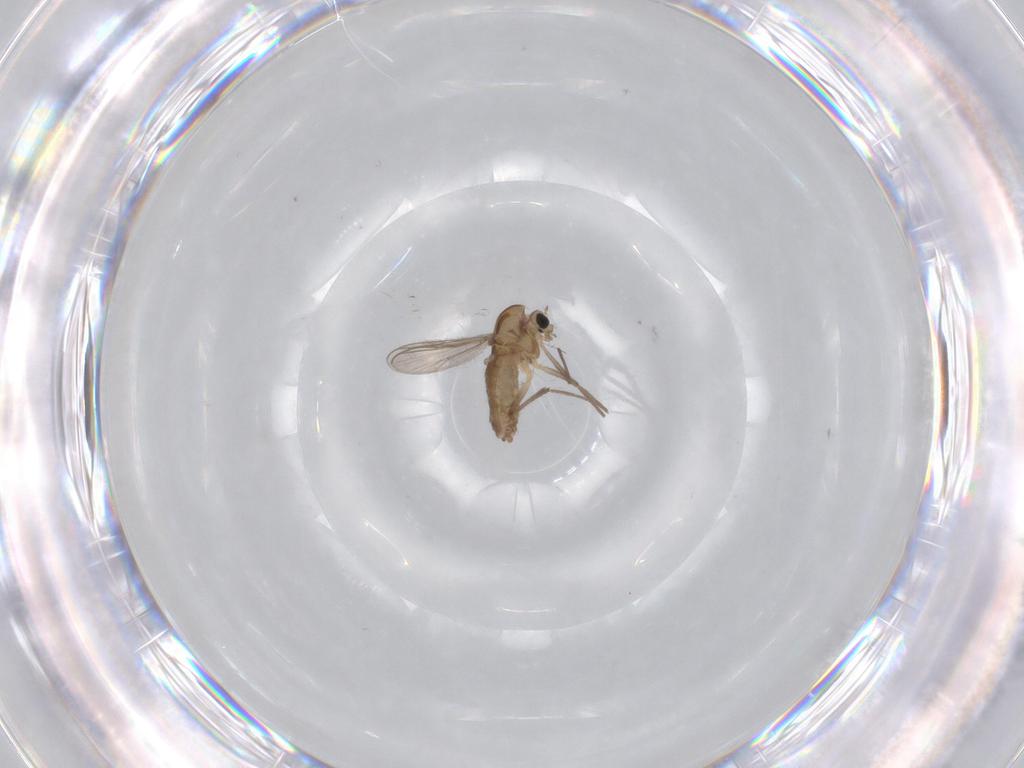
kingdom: Animalia
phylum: Arthropoda
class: Insecta
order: Diptera
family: Chironomidae
